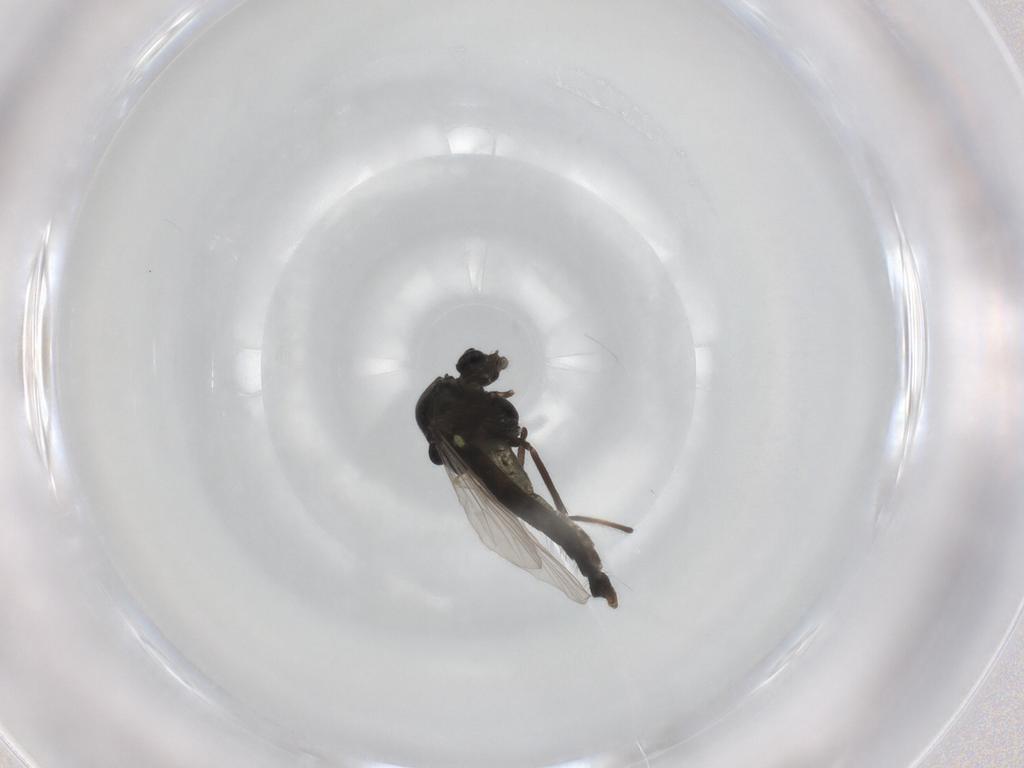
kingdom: Animalia
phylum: Arthropoda
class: Insecta
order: Diptera
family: Chironomidae
